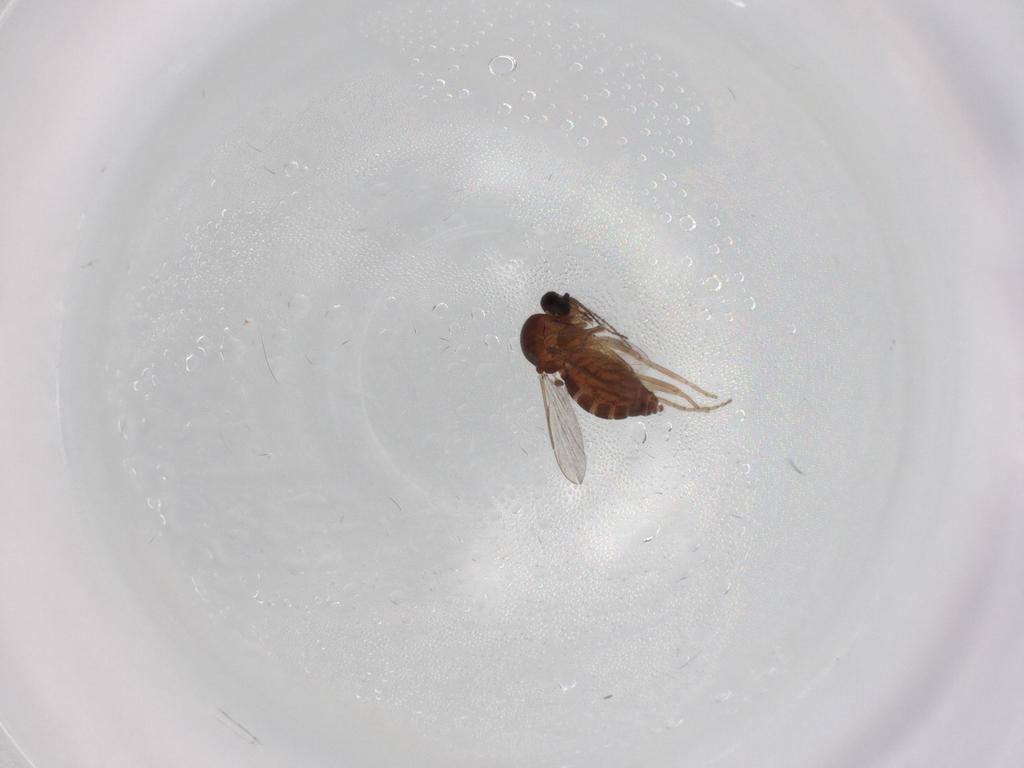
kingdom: Animalia
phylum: Arthropoda
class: Insecta
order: Diptera
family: Ceratopogonidae
